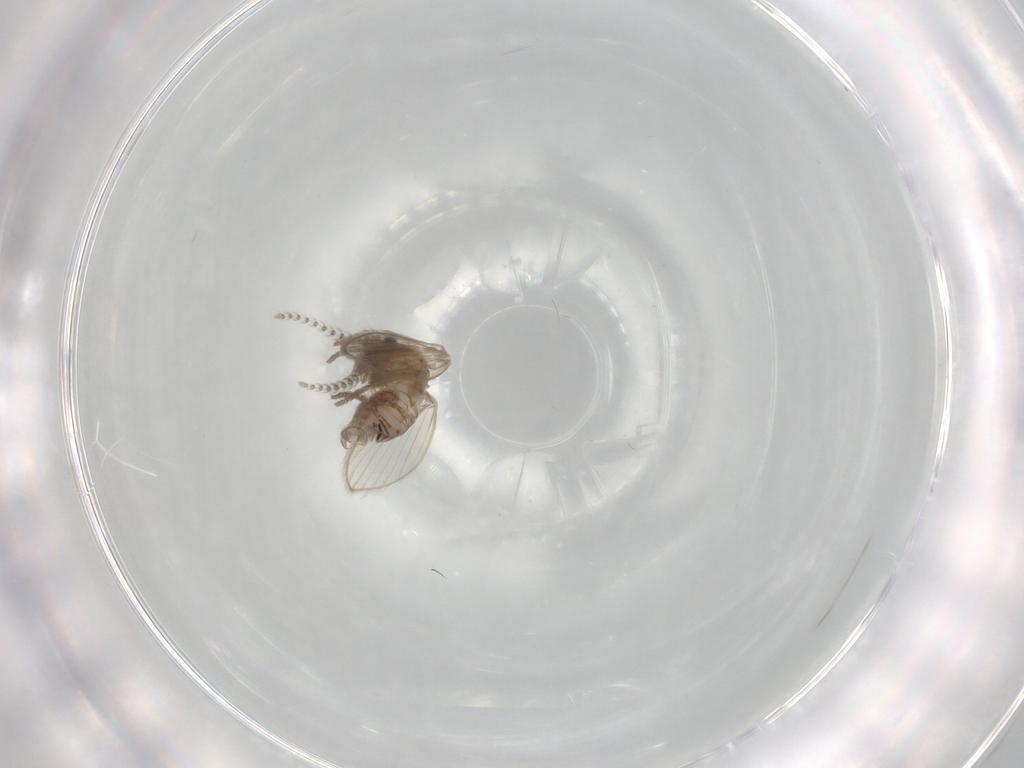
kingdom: Animalia
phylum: Arthropoda
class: Insecta
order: Diptera
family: Psychodidae
